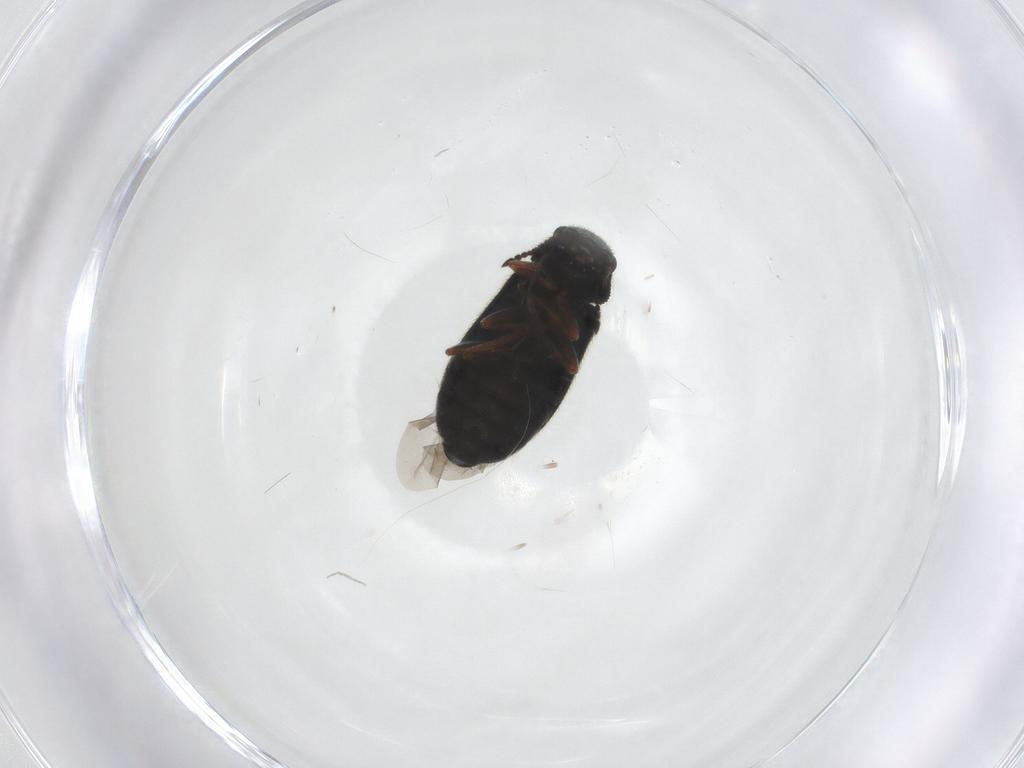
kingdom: Animalia
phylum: Arthropoda
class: Insecta
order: Coleoptera
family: Melyridae
